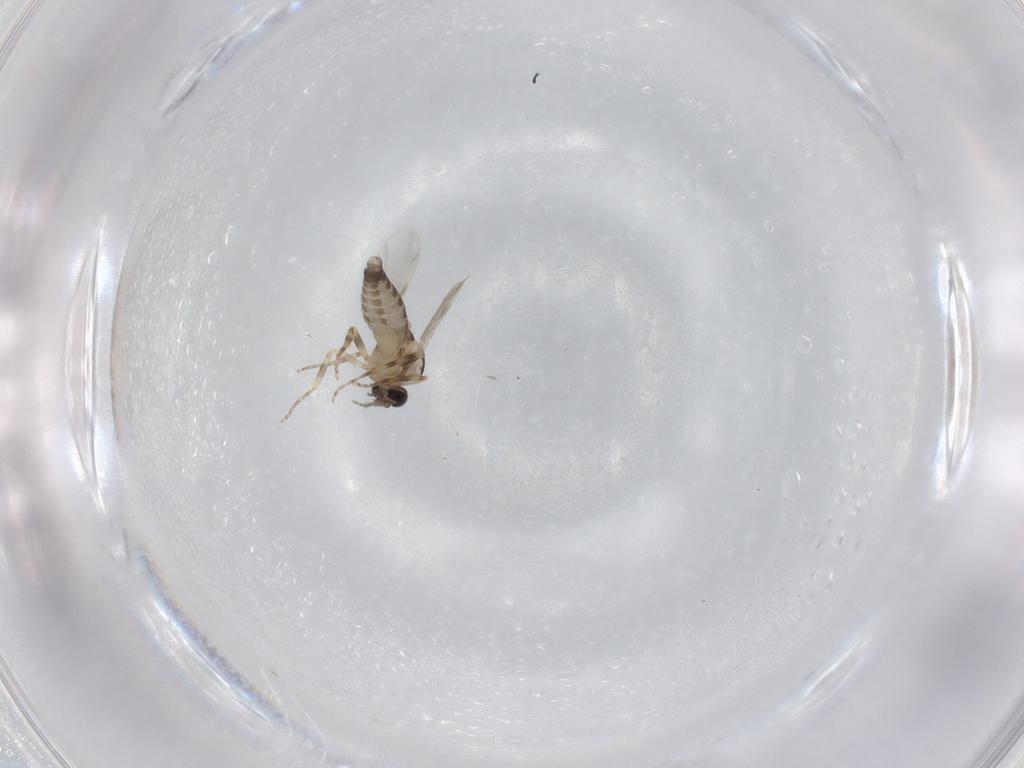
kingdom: Animalia
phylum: Arthropoda
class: Insecta
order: Diptera
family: Ceratopogonidae
